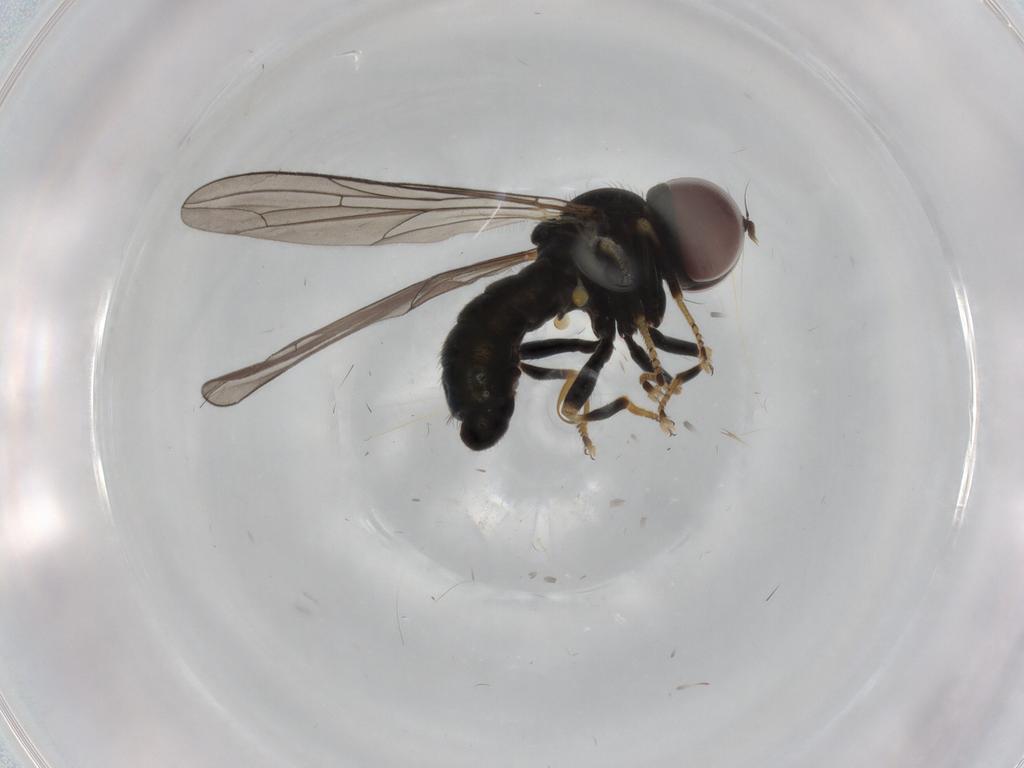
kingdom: Animalia
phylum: Arthropoda
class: Insecta
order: Diptera
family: Pipunculidae
